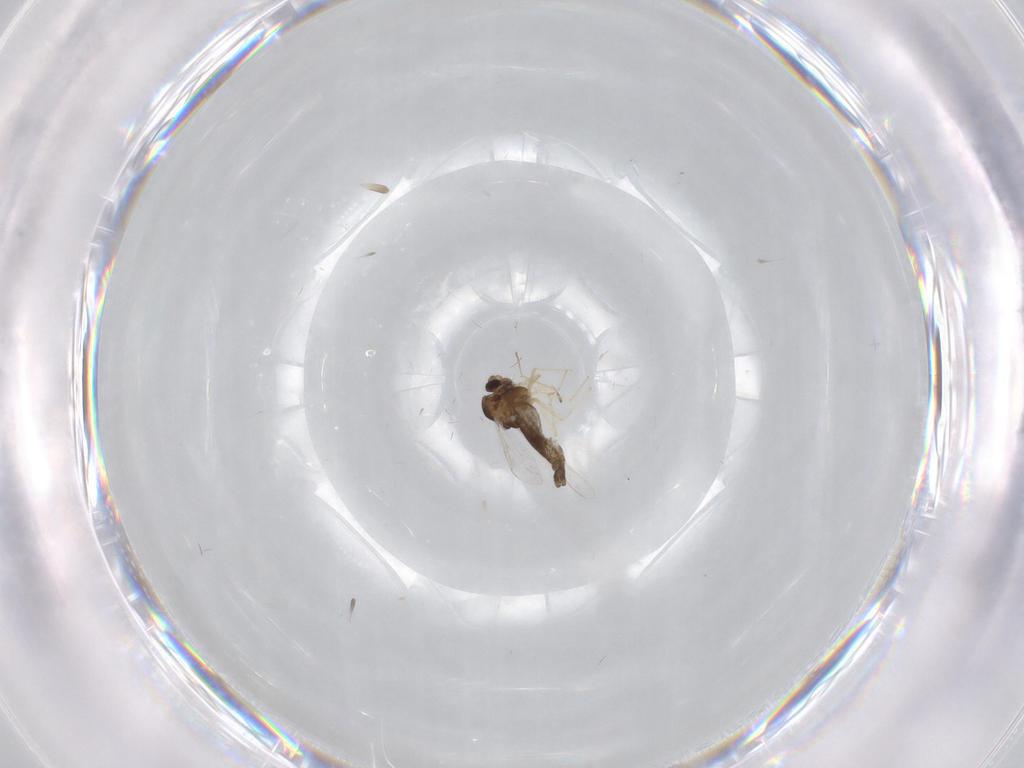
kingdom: Animalia
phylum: Arthropoda
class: Insecta
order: Diptera
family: Chironomidae
